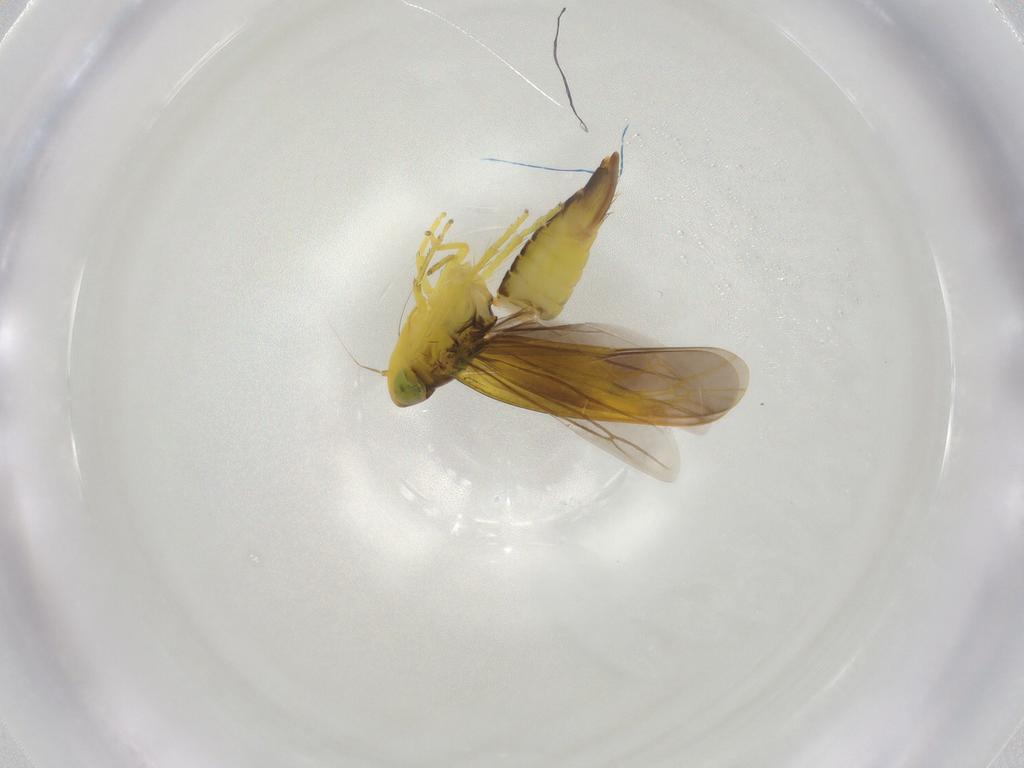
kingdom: Animalia
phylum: Arthropoda
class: Insecta
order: Hemiptera
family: Cicadellidae
